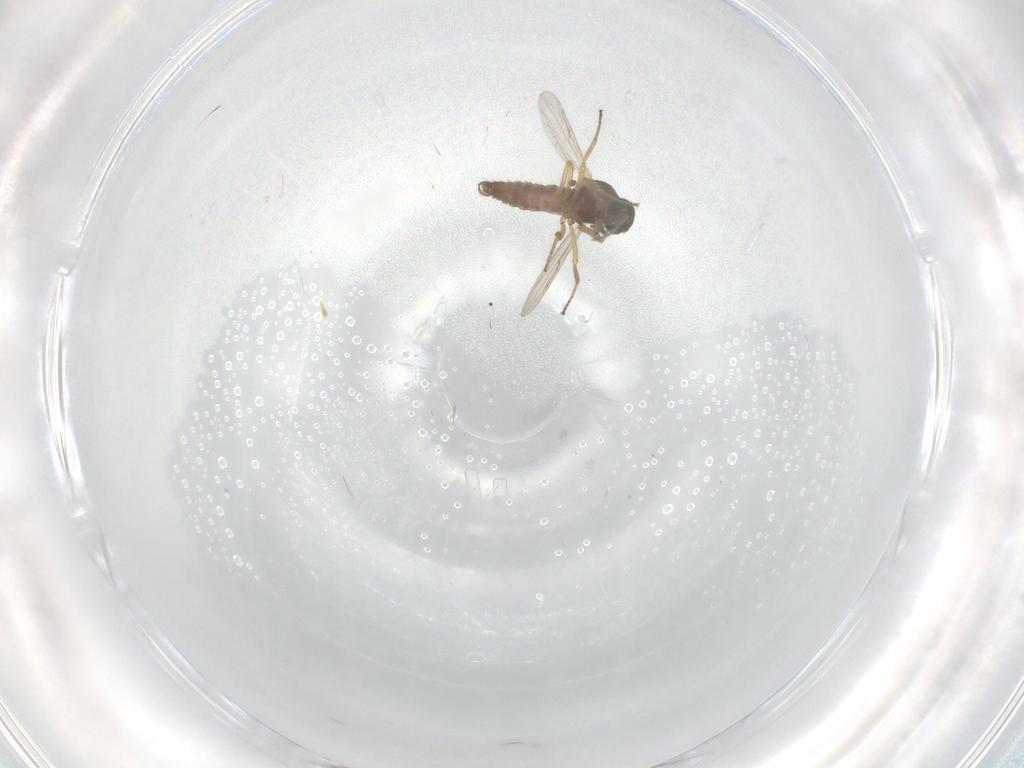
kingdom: Animalia
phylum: Arthropoda
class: Insecta
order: Diptera
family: Ceratopogonidae
